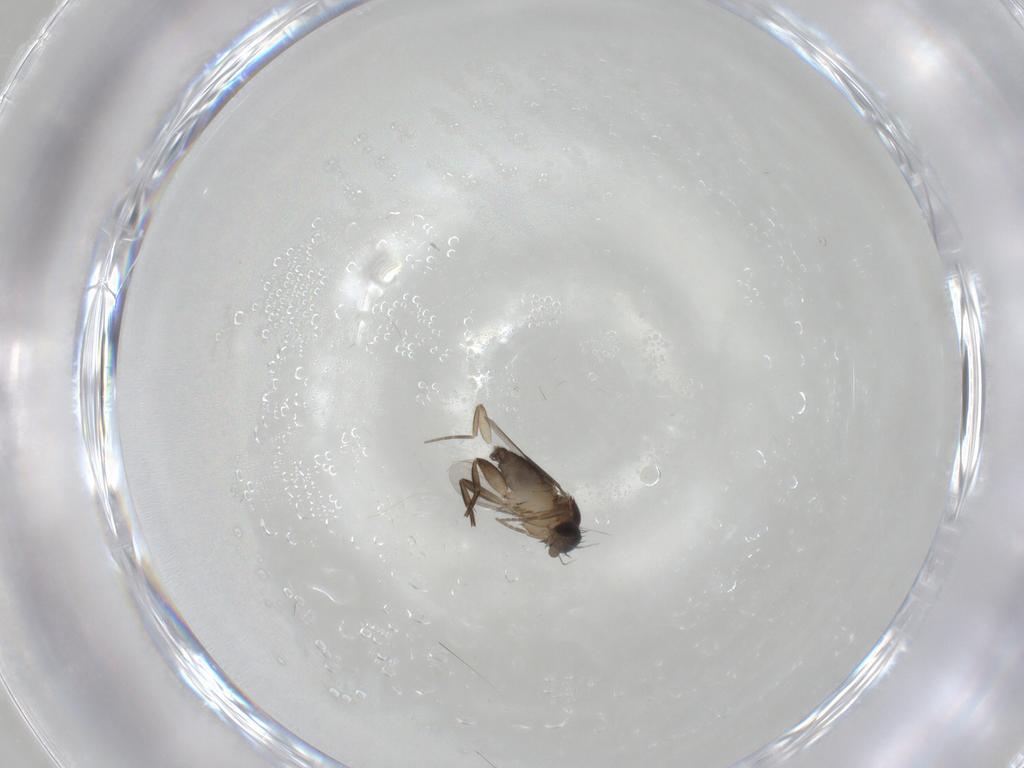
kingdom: Animalia
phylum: Arthropoda
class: Insecta
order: Diptera
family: Phoridae
